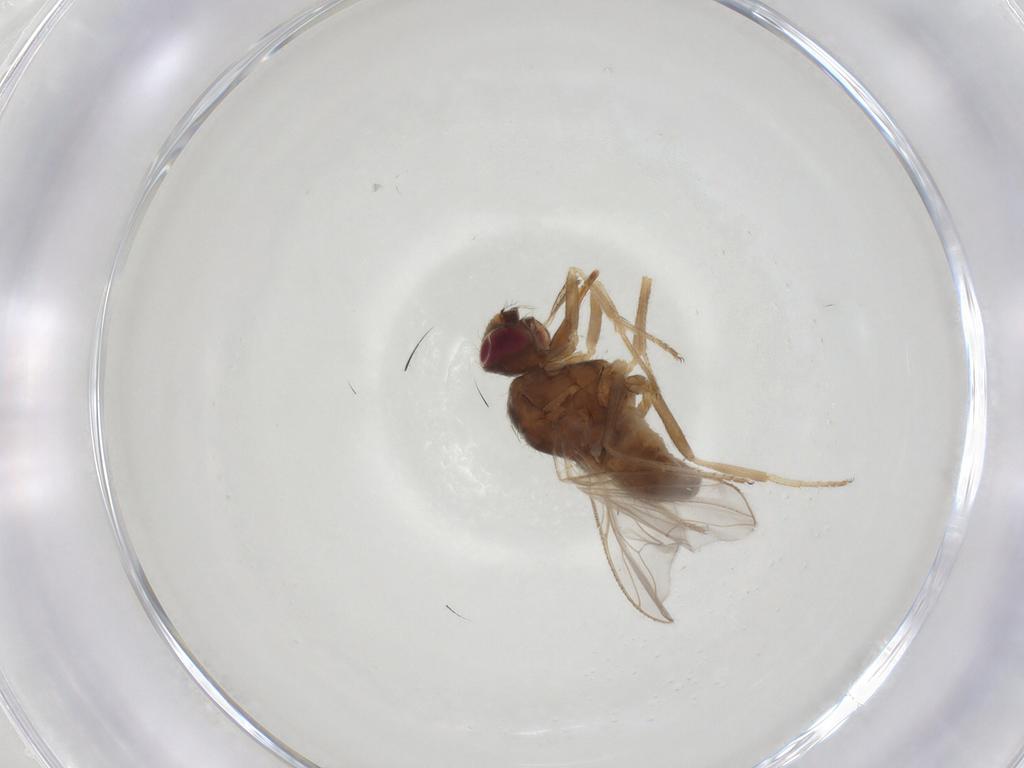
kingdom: Animalia
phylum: Arthropoda
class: Insecta
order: Diptera
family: Muscidae
